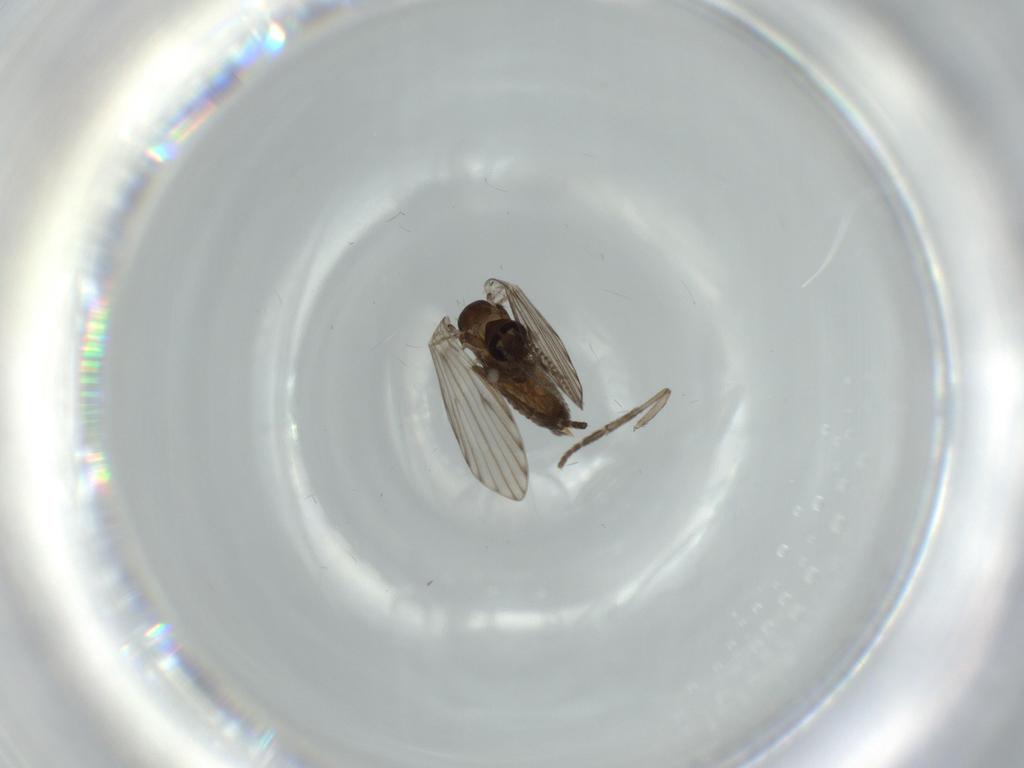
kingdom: Animalia
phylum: Arthropoda
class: Insecta
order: Diptera
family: Psychodidae
